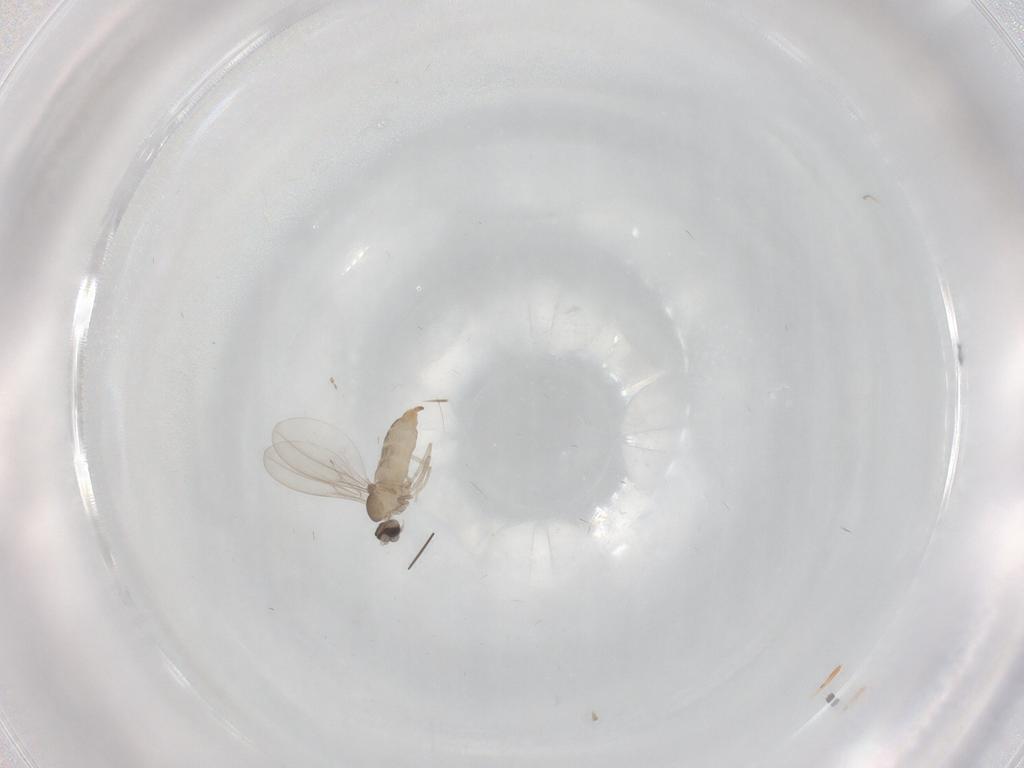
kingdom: Animalia
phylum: Arthropoda
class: Insecta
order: Diptera
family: Cecidomyiidae
